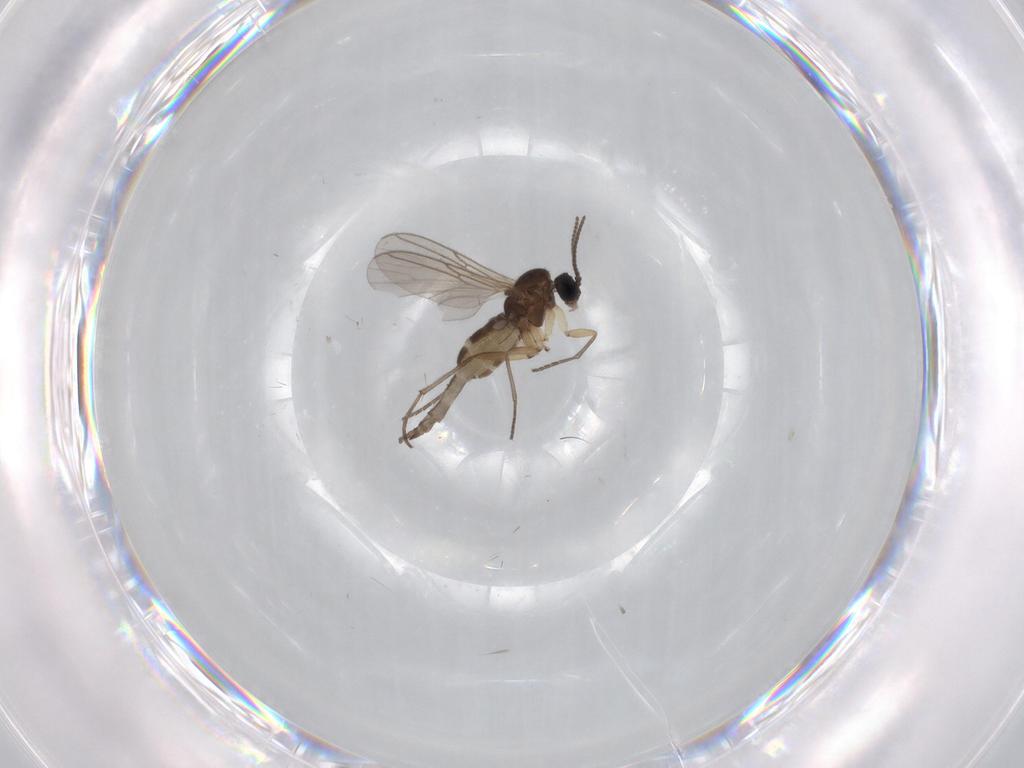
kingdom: Animalia
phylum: Arthropoda
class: Insecta
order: Diptera
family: Sciaridae
